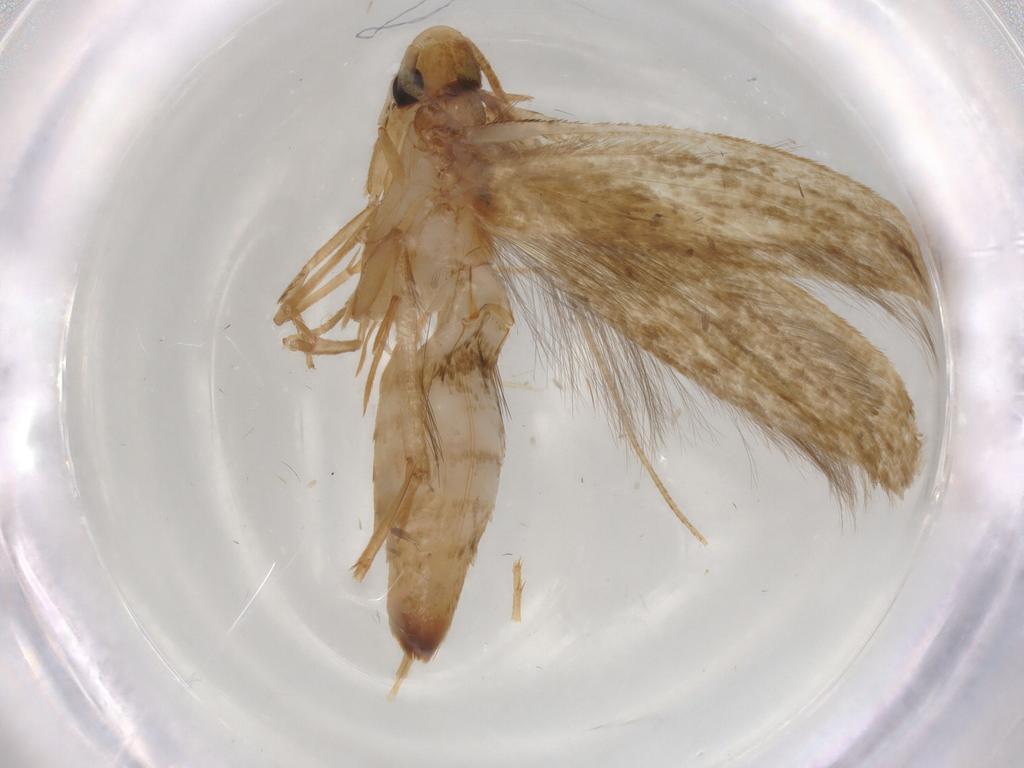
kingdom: Animalia
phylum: Arthropoda
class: Insecta
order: Lepidoptera
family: Tineidae
